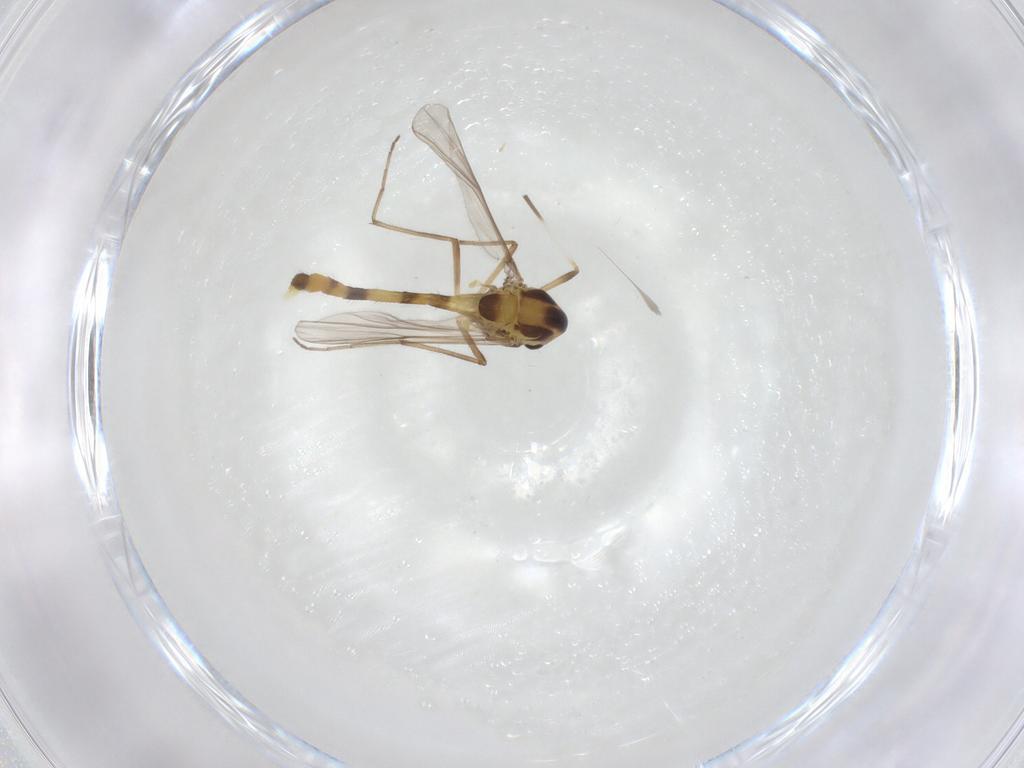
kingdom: Animalia
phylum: Arthropoda
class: Insecta
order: Diptera
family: Chironomidae
